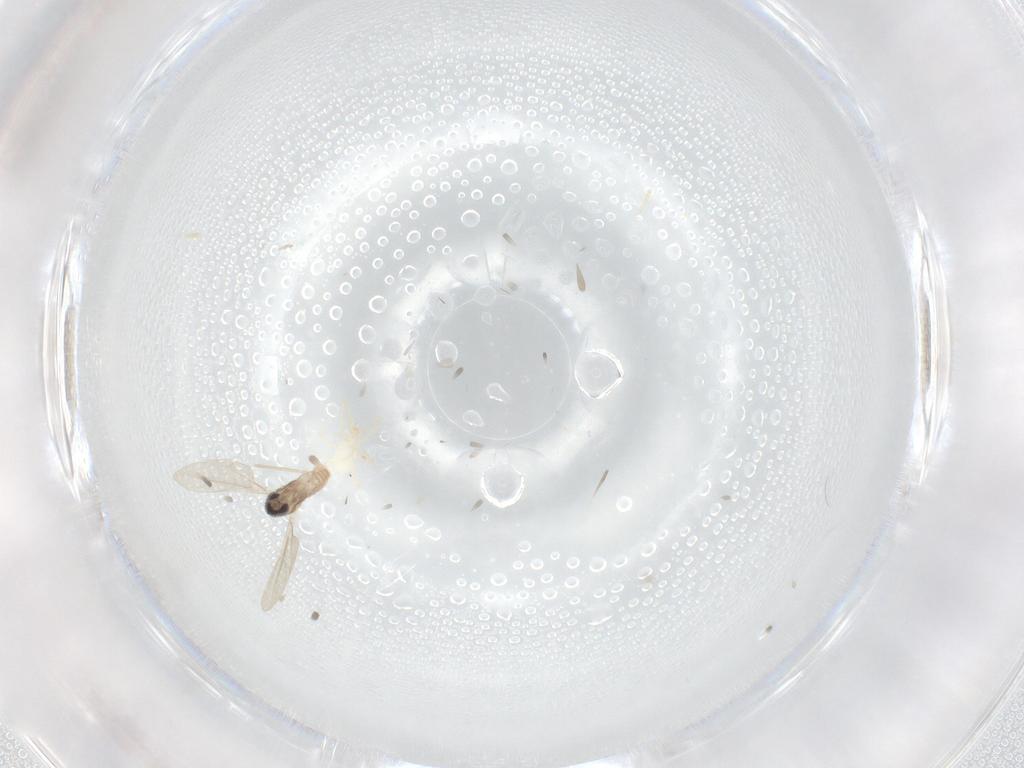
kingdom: Animalia
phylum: Arthropoda
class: Insecta
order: Diptera
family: Cecidomyiidae
